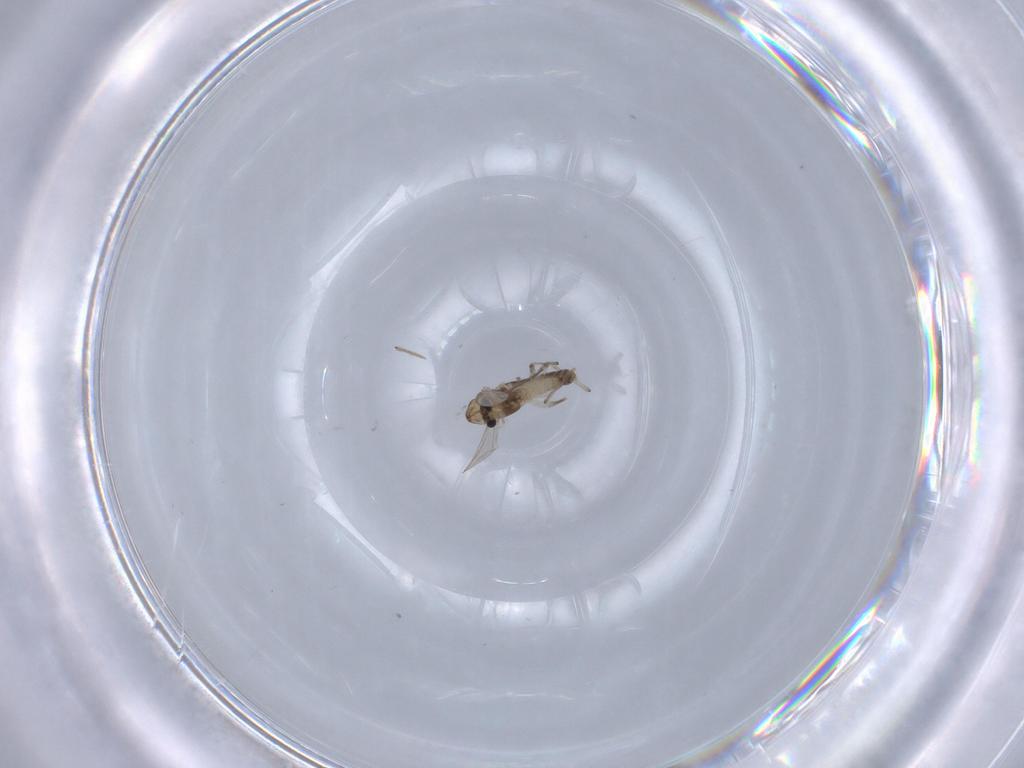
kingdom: Animalia
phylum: Arthropoda
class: Insecta
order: Diptera
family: Chironomidae
